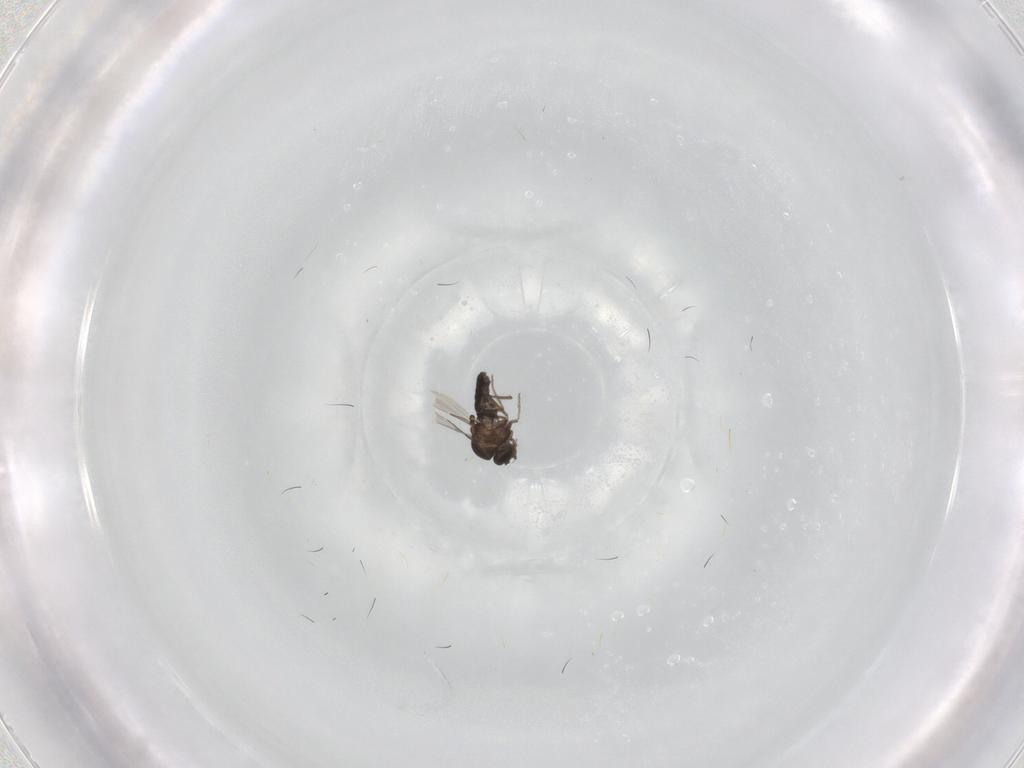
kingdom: Animalia
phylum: Arthropoda
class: Insecta
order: Diptera
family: Ceratopogonidae
